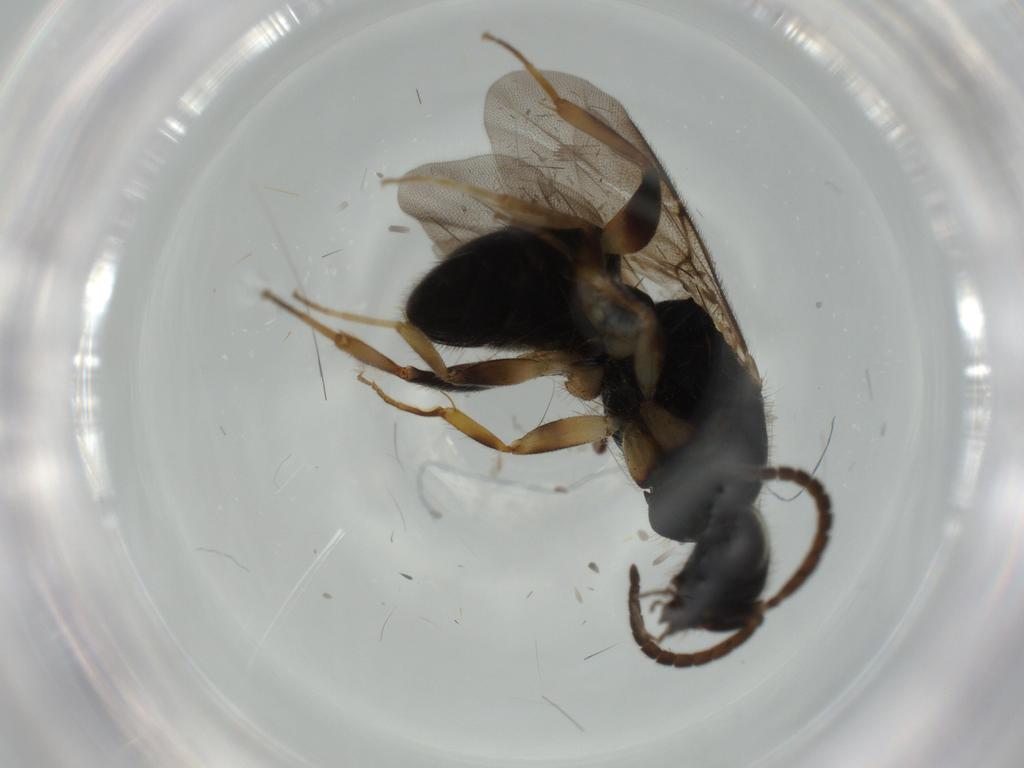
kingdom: Animalia
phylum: Arthropoda
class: Insecta
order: Hymenoptera
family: Chrysididae
